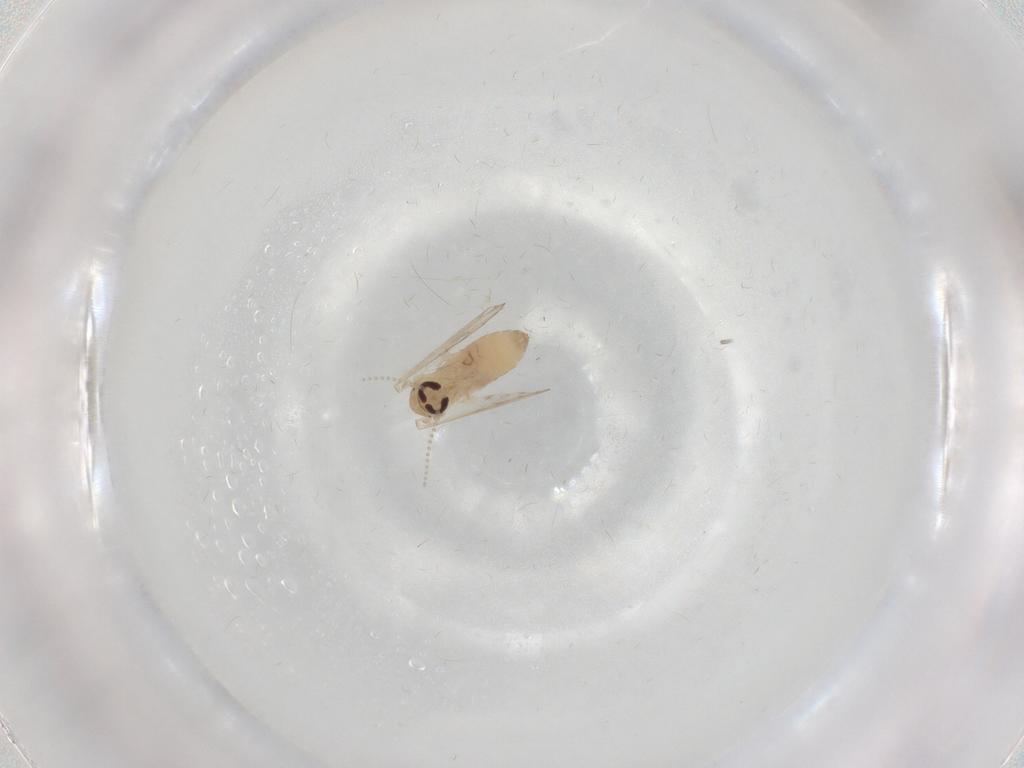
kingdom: Animalia
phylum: Arthropoda
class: Insecta
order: Diptera
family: Psychodidae
